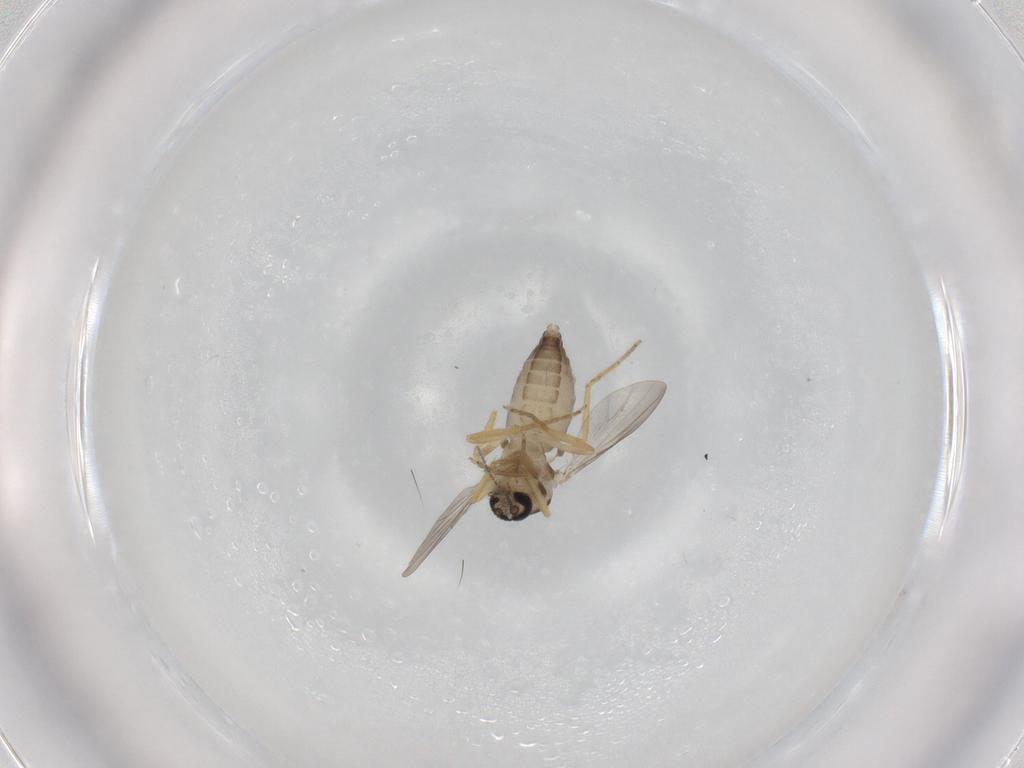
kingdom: Animalia
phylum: Arthropoda
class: Insecta
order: Diptera
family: Ceratopogonidae
